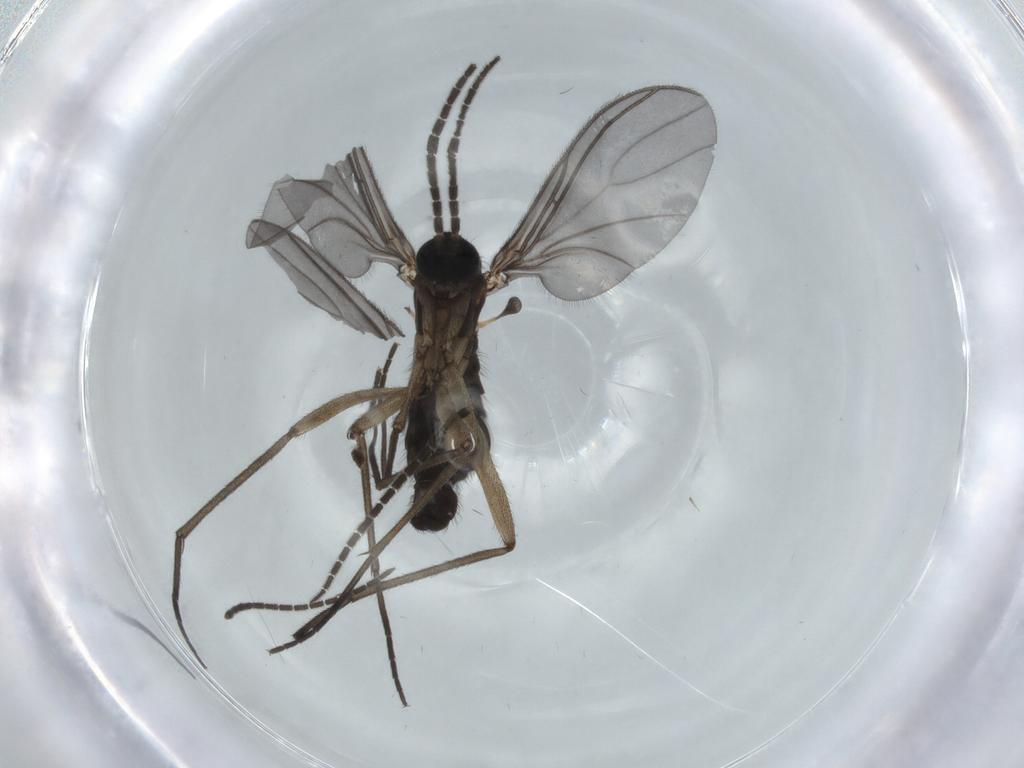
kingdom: Animalia
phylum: Arthropoda
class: Insecta
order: Diptera
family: Sciaridae
